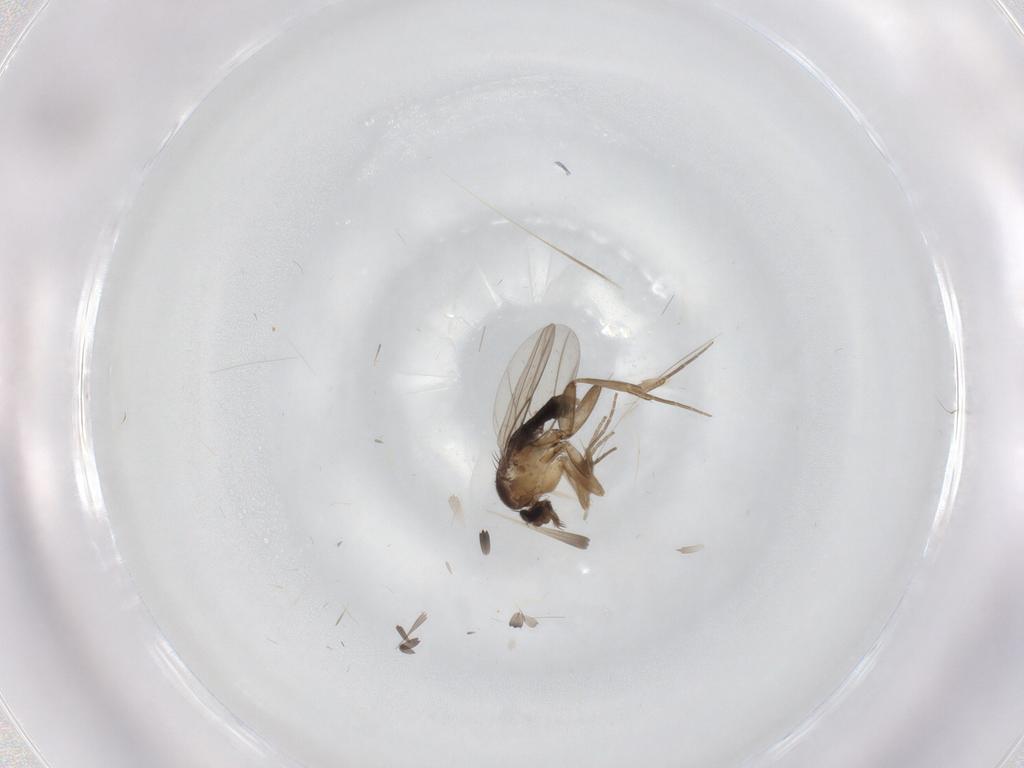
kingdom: Animalia
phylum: Arthropoda
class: Insecta
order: Diptera
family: Phoridae
